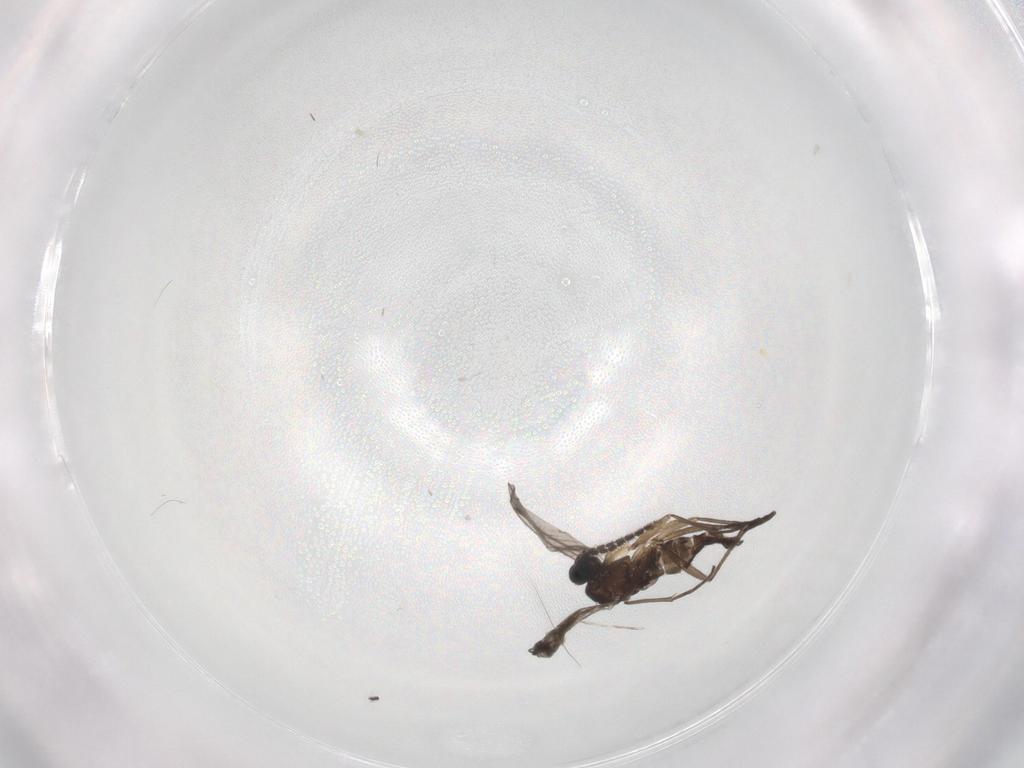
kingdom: Animalia
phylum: Arthropoda
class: Insecta
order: Diptera
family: Sciaridae
